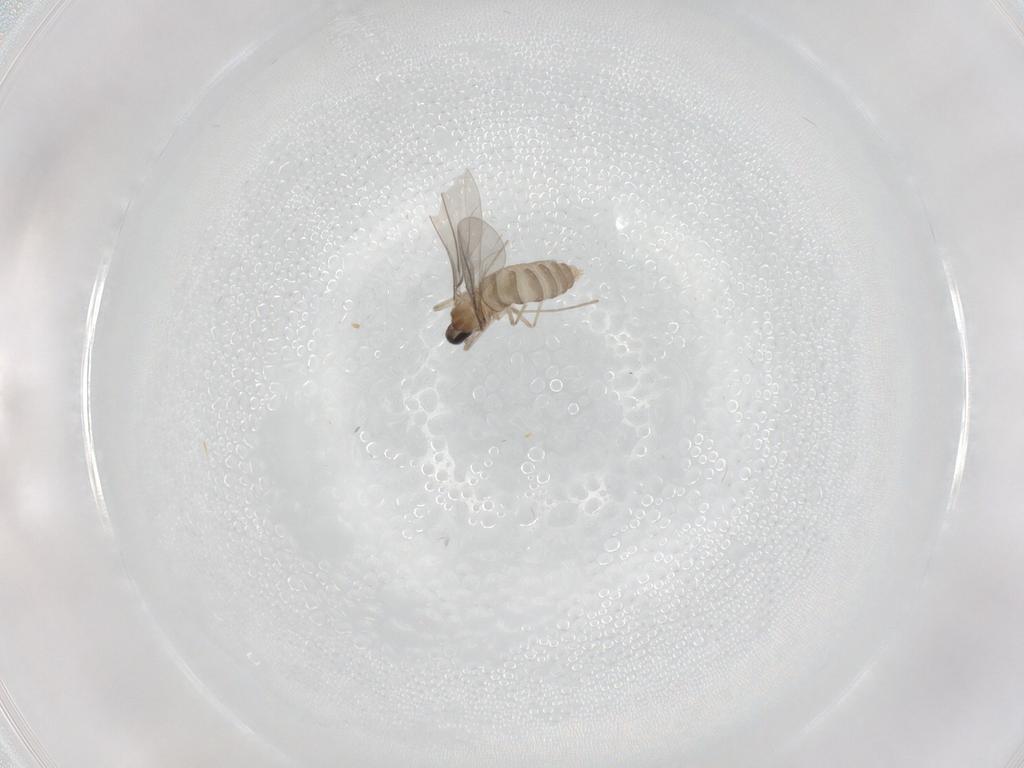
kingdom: Animalia
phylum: Arthropoda
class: Insecta
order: Diptera
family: Cecidomyiidae
